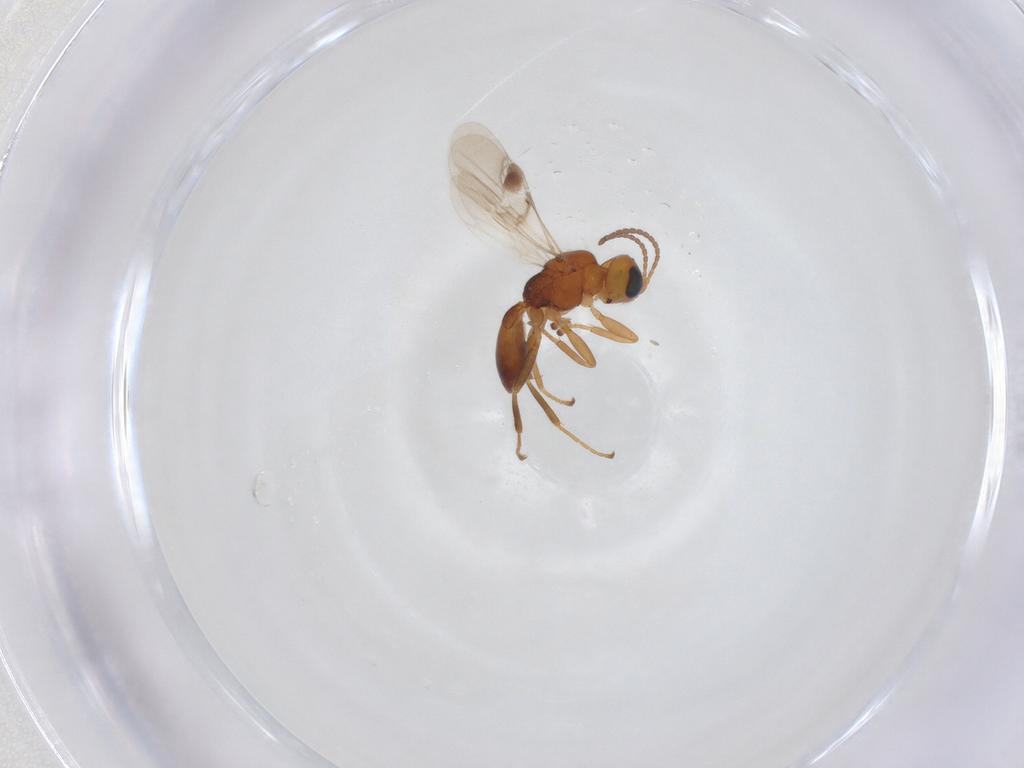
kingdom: Animalia
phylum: Arthropoda
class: Insecta
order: Hymenoptera
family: Braconidae
